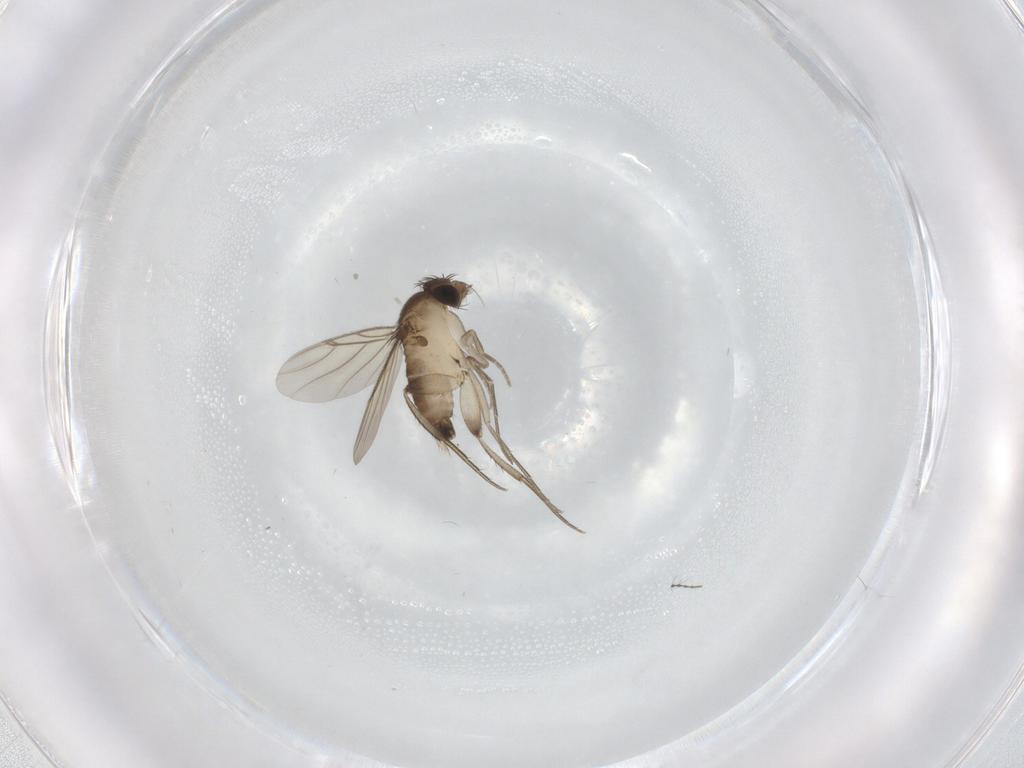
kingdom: Animalia
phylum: Arthropoda
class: Insecta
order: Diptera
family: Phoridae
